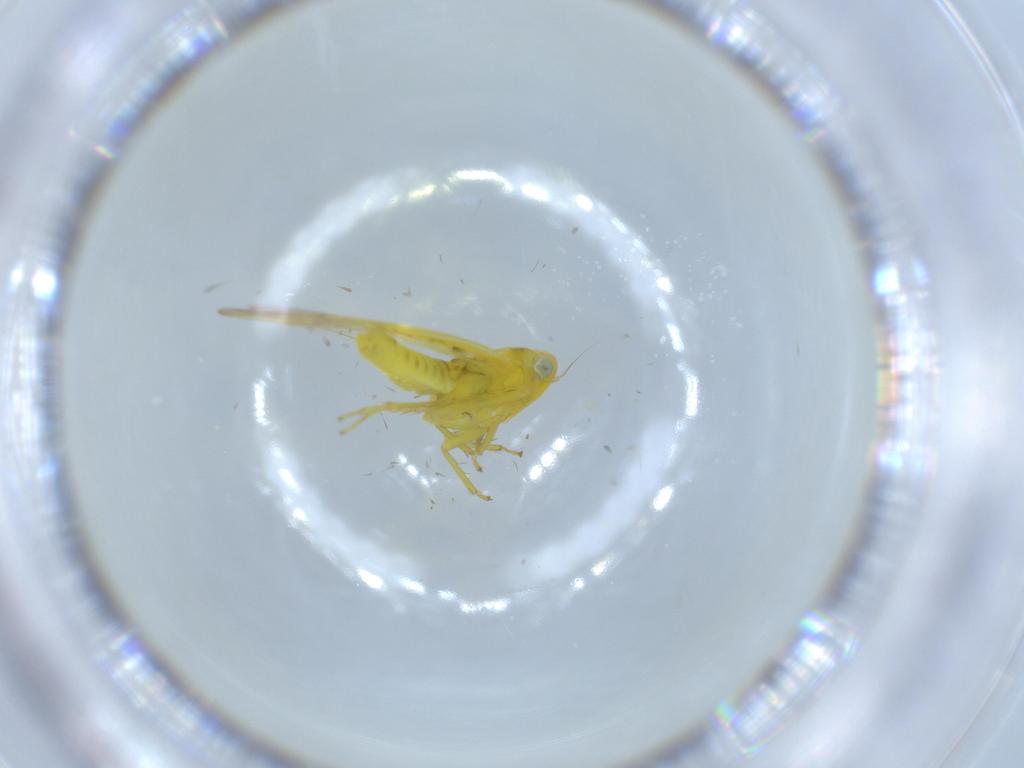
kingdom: Animalia
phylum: Arthropoda
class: Insecta
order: Hemiptera
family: Cicadellidae
